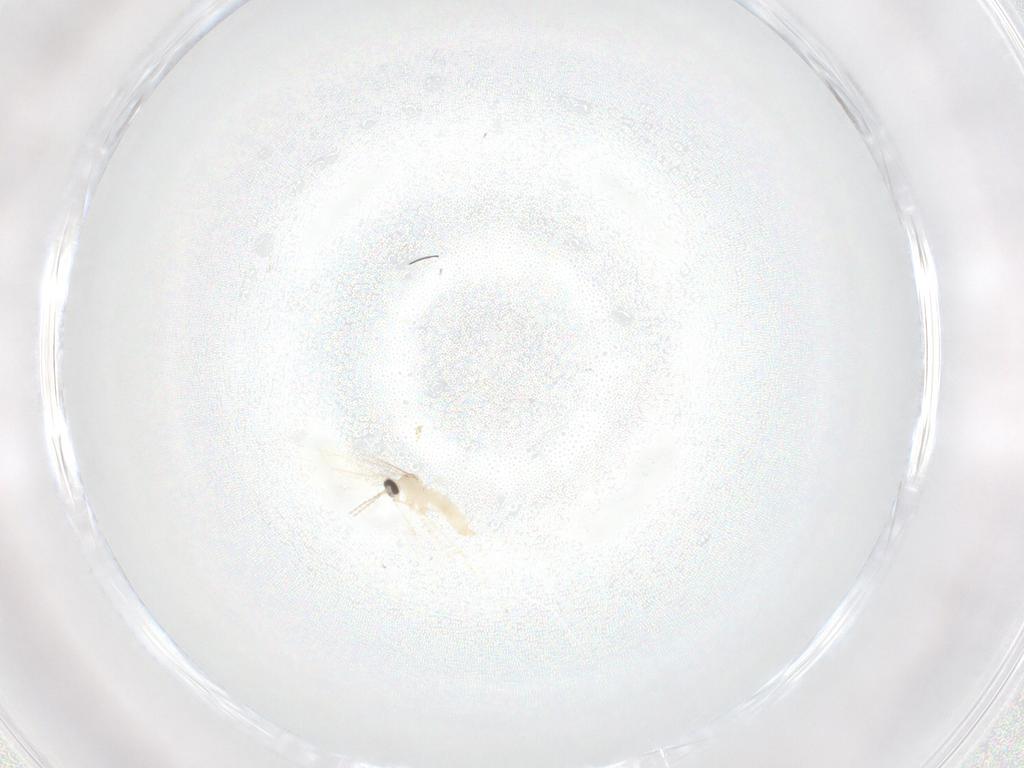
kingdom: Animalia
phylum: Arthropoda
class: Insecta
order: Diptera
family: Dolichopodidae
